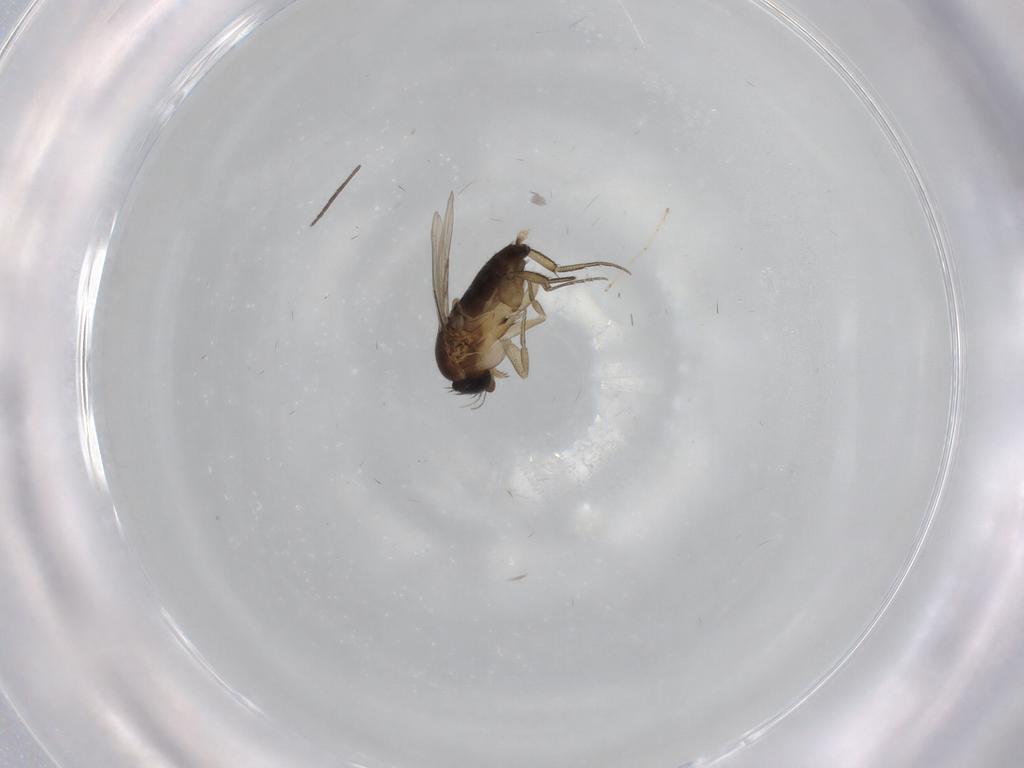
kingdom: Animalia
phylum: Arthropoda
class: Insecta
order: Diptera
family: Phoridae
